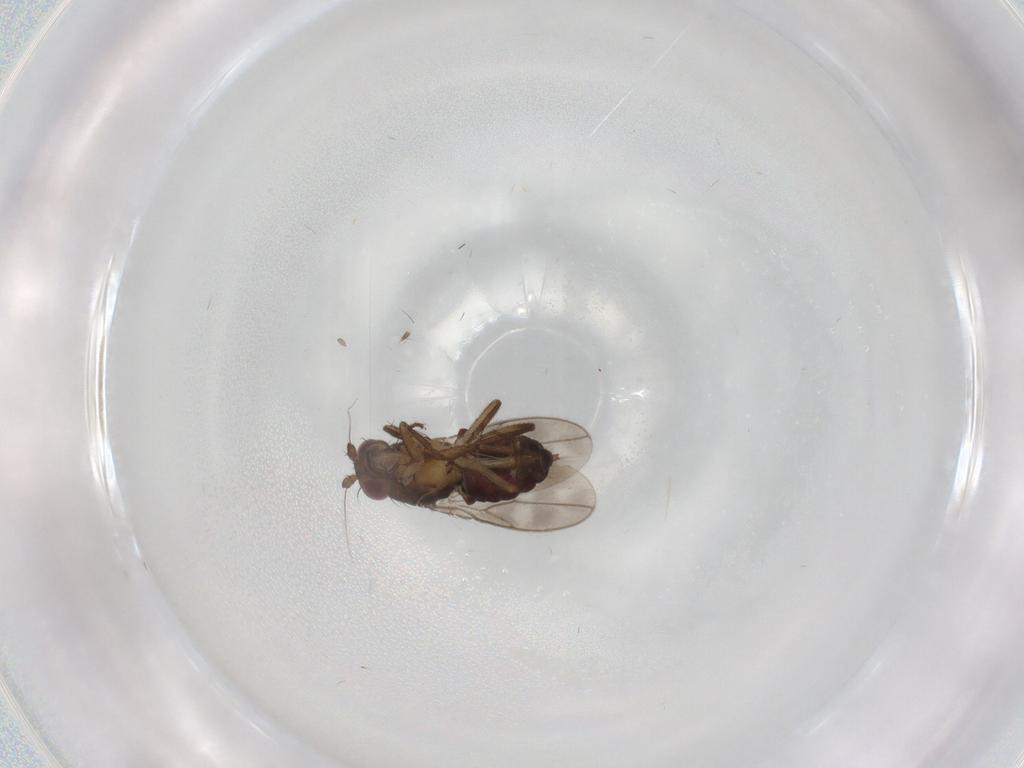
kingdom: Animalia
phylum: Arthropoda
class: Insecta
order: Diptera
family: Sphaeroceridae
